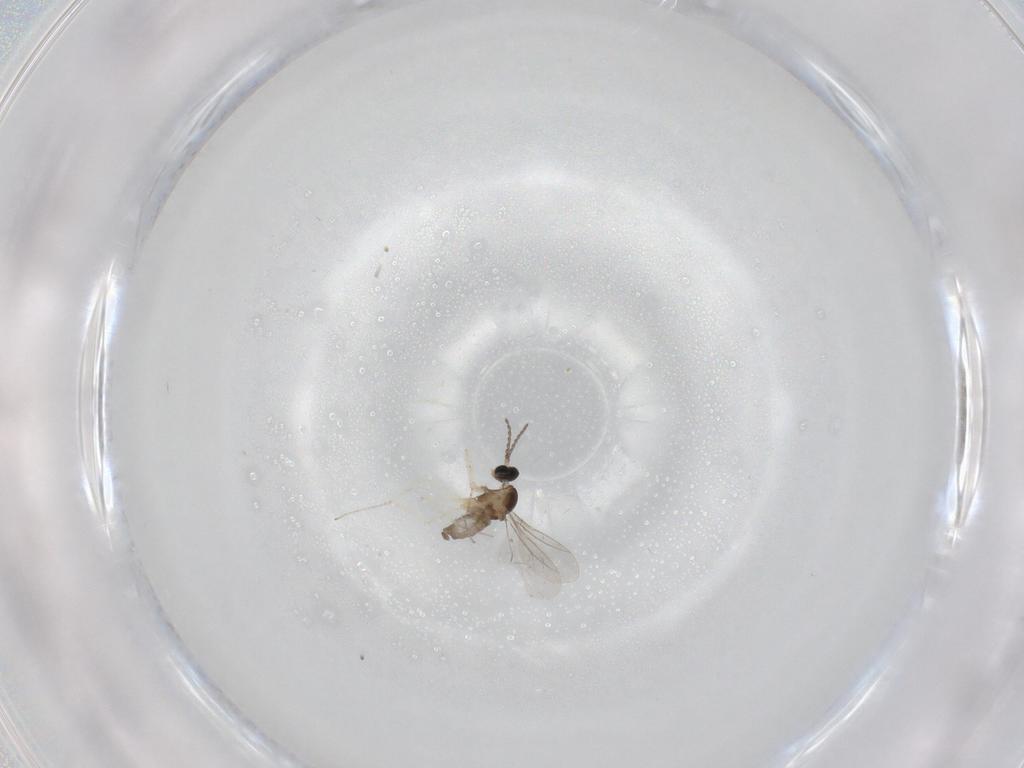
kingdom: Animalia
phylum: Arthropoda
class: Insecta
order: Diptera
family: Cecidomyiidae
